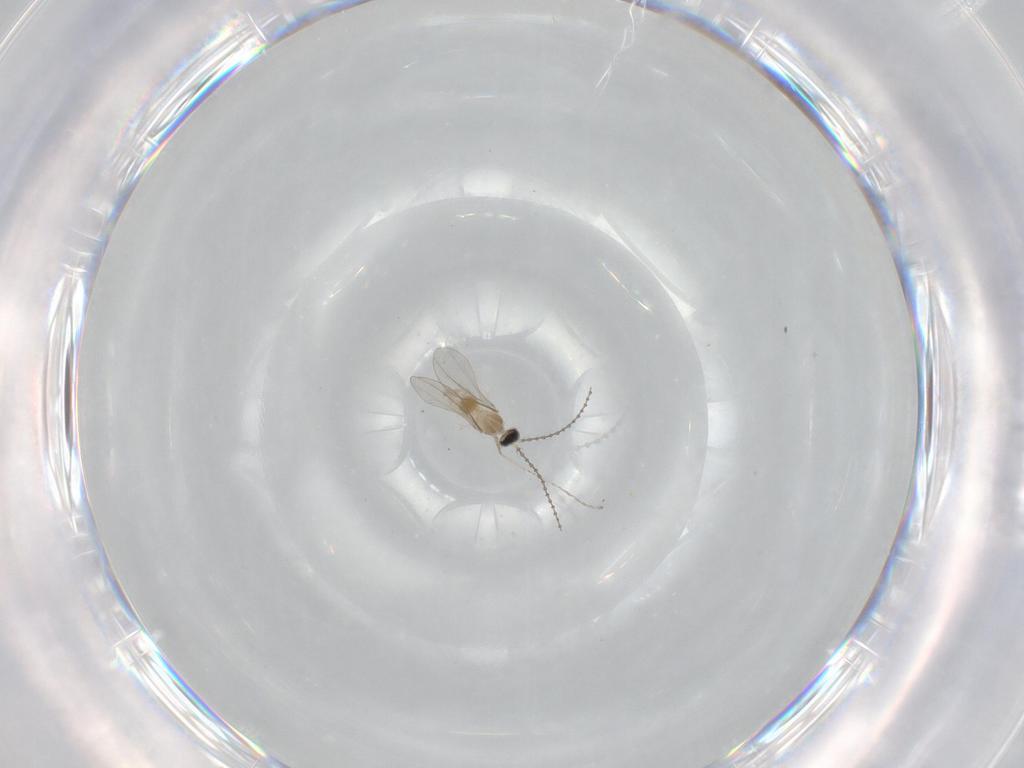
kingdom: Animalia
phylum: Arthropoda
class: Insecta
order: Diptera
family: Cecidomyiidae
